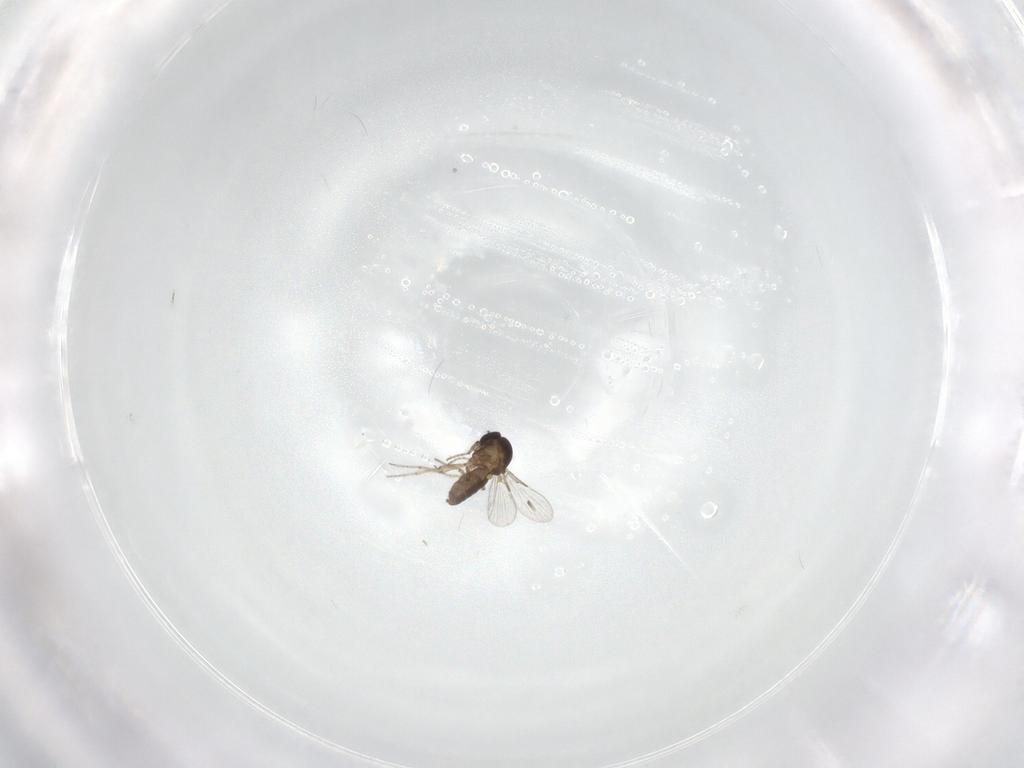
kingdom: Animalia
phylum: Arthropoda
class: Insecta
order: Diptera
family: Ceratopogonidae
